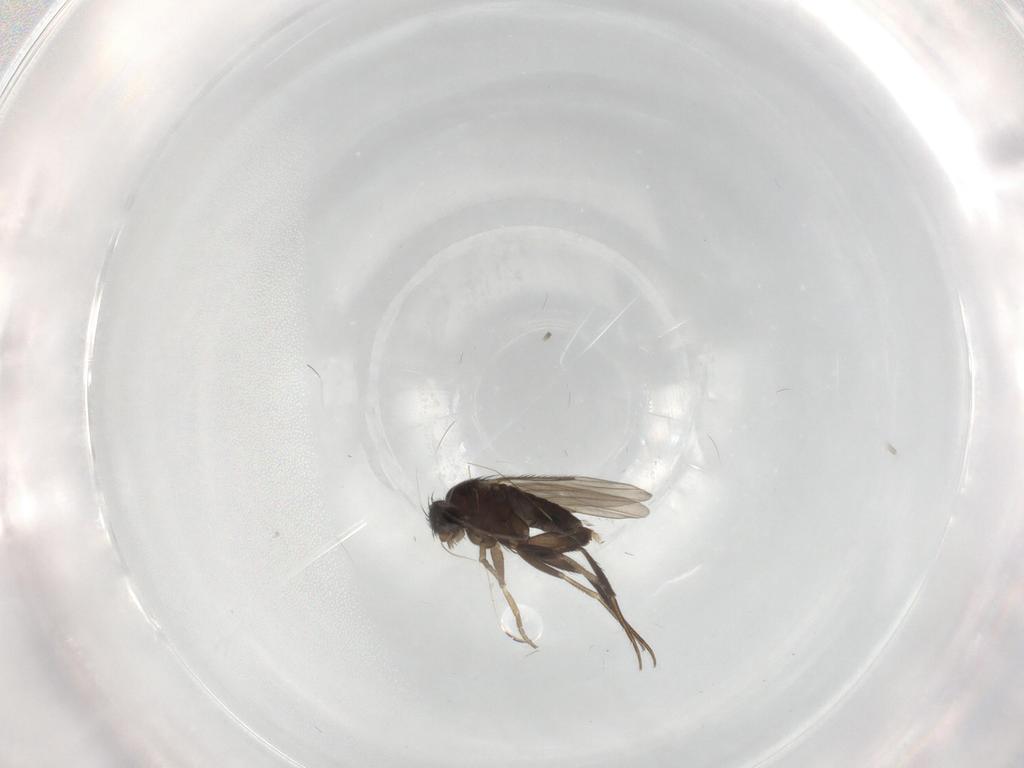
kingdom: Animalia
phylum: Arthropoda
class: Insecta
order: Diptera
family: Phoridae
